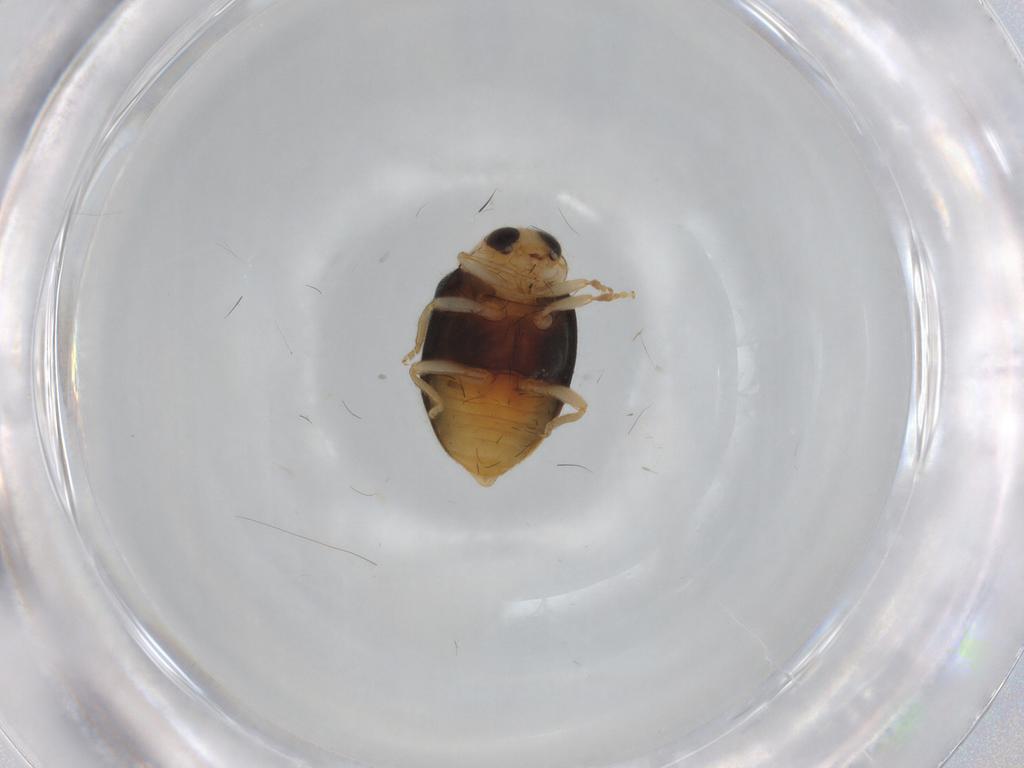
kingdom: Animalia
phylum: Arthropoda
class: Insecta
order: Coleoptera
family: Coccinellidae
